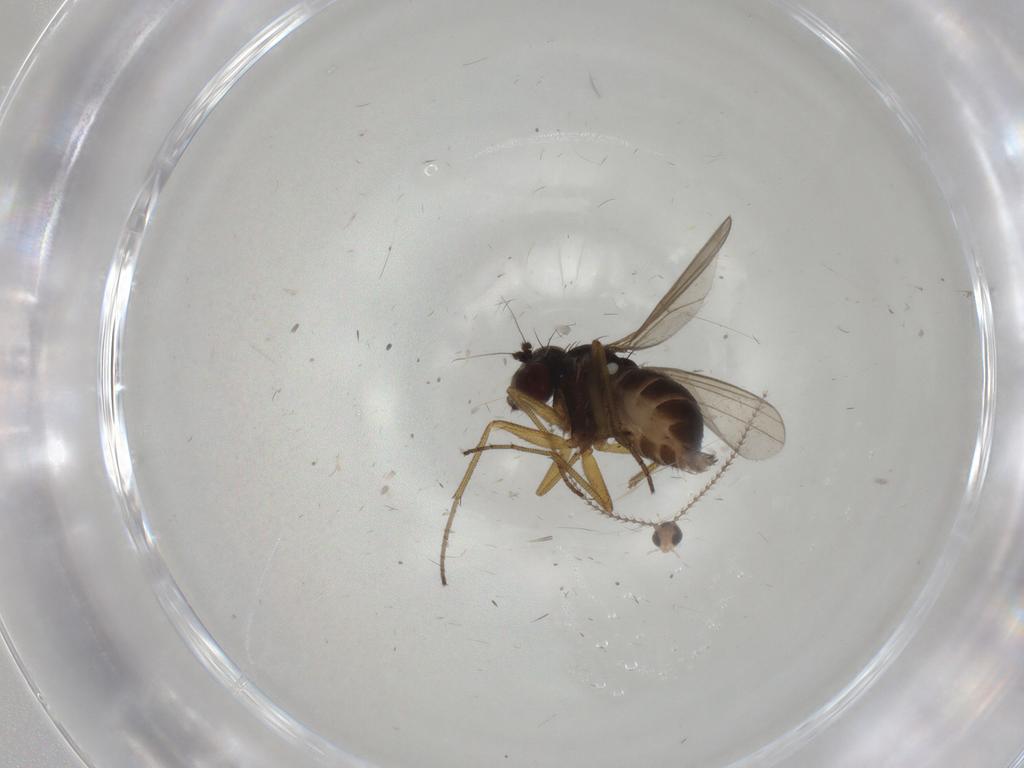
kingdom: Animalia
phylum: Arthropoda
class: Insecta
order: Diptera
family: Dolichopodidae
